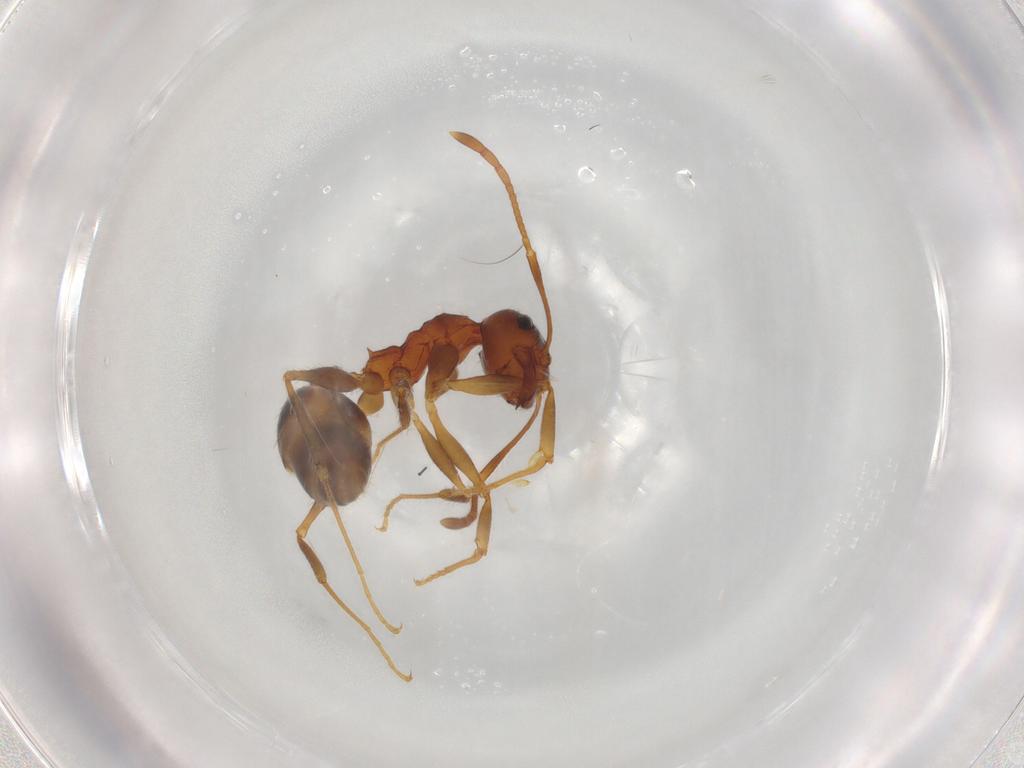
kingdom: Animalia
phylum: Arthropoda
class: Insecta
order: Hymenoptera
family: Formicidae
